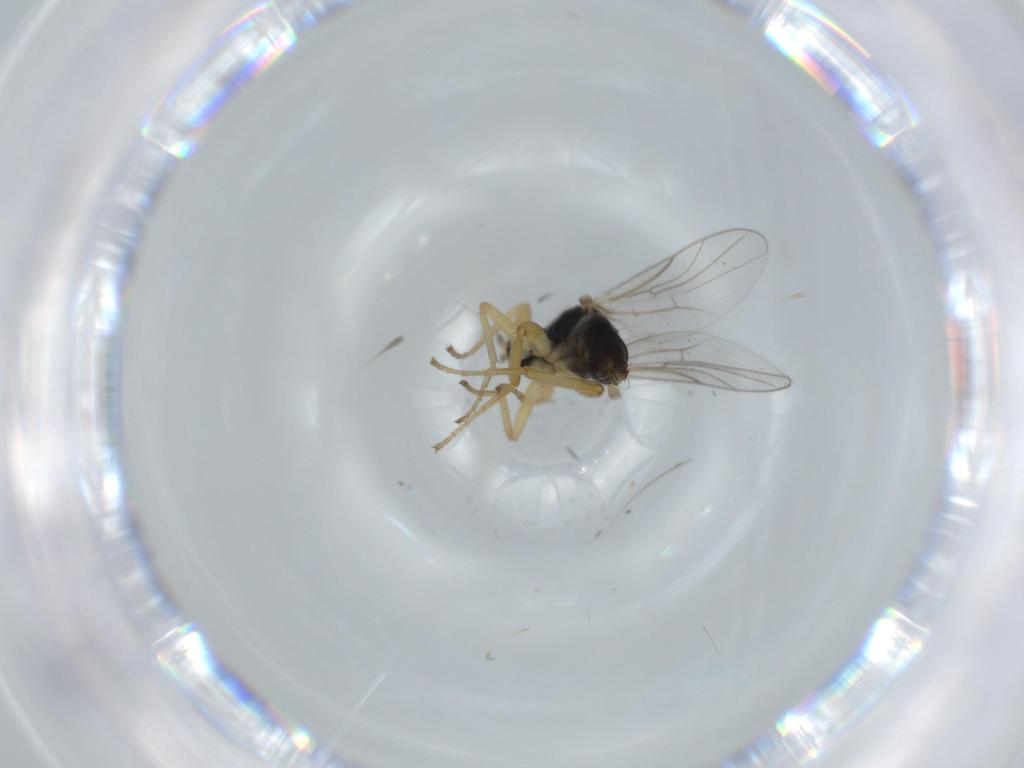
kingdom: Animalia
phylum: Arthropoda
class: Insecta
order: Diptera
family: Hybotidae
